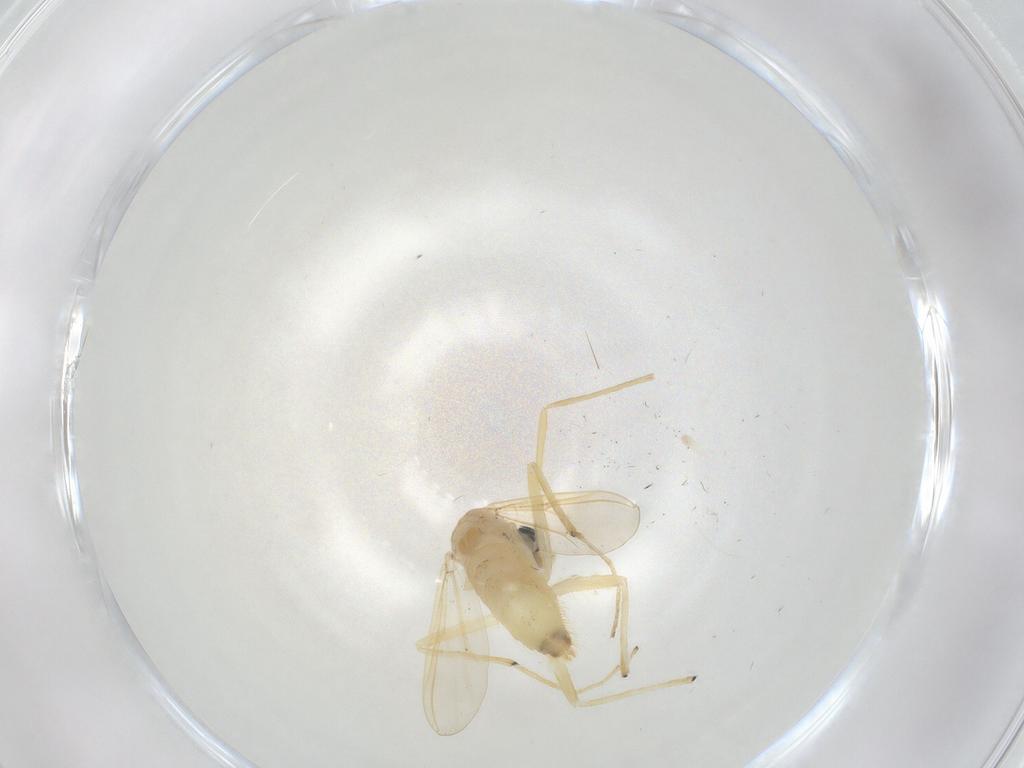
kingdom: Animalia
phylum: Arthropoda
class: Insecta
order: Diptera
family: Chironomidae
